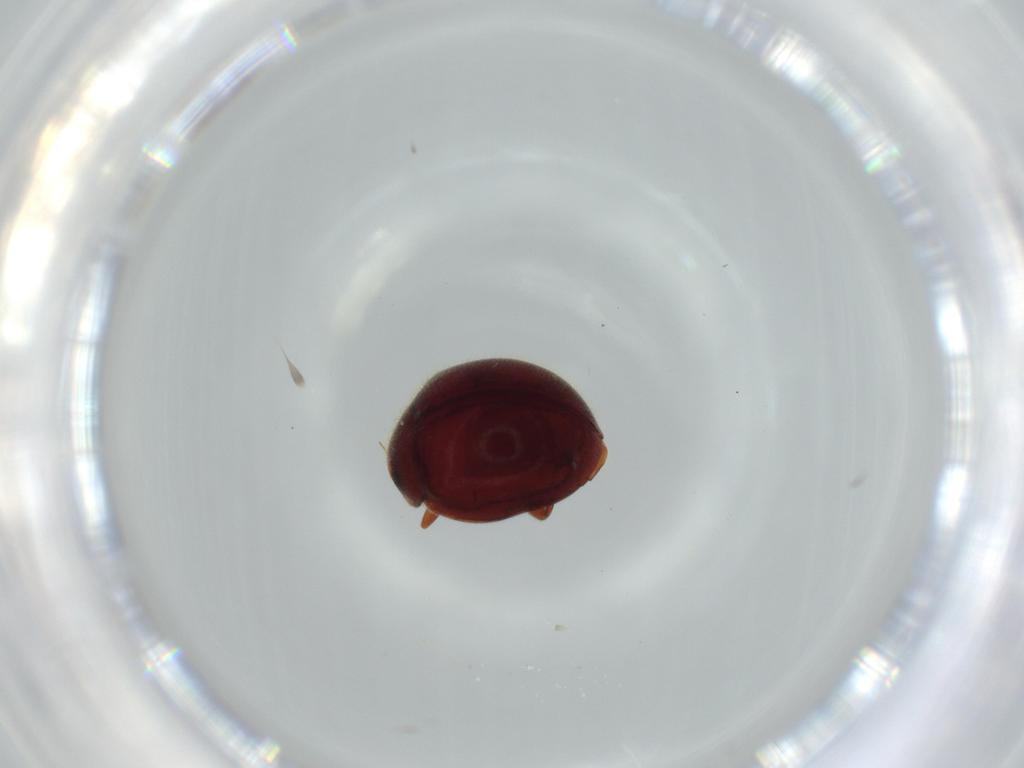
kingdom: Animalia
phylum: Arthropoda
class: Insecta
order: Coleoptera
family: Coccinellidae
